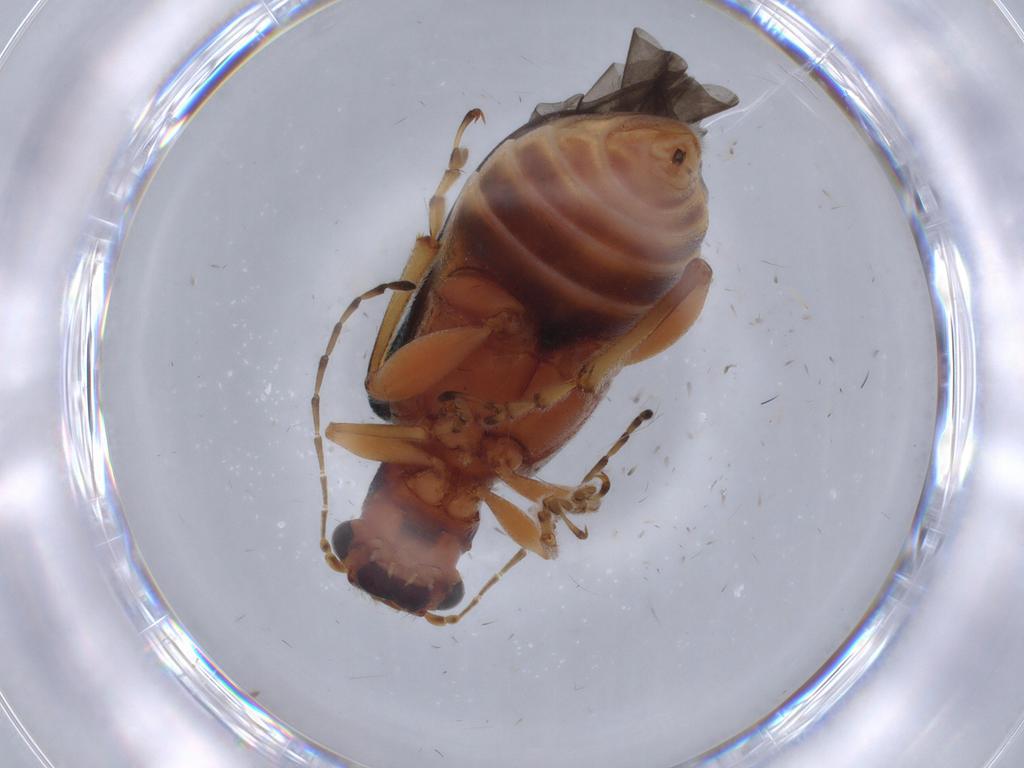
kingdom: Animalia
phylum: Arthropoda
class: Insecta
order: Coleoptera
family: Chrysomelidae
